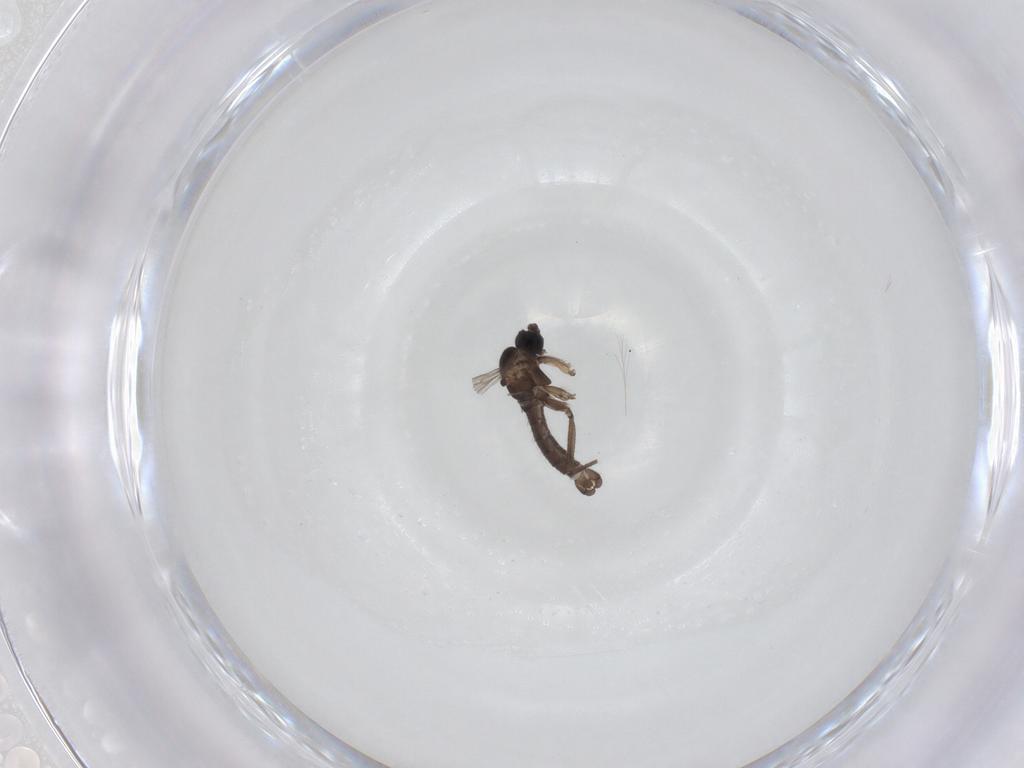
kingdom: Animalia
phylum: Arthropoda
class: Insecta
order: Diptera
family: Sciaridae
